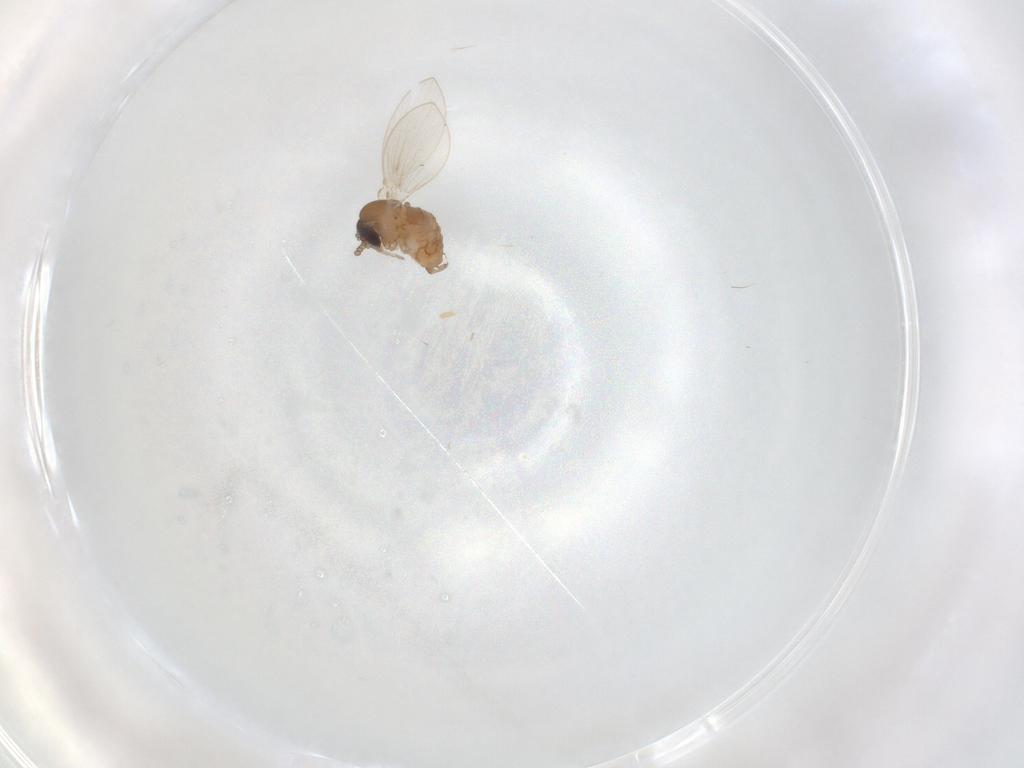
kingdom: Animalia
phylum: Arthropoda
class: Insecta
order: Diptera
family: Psychodidae
